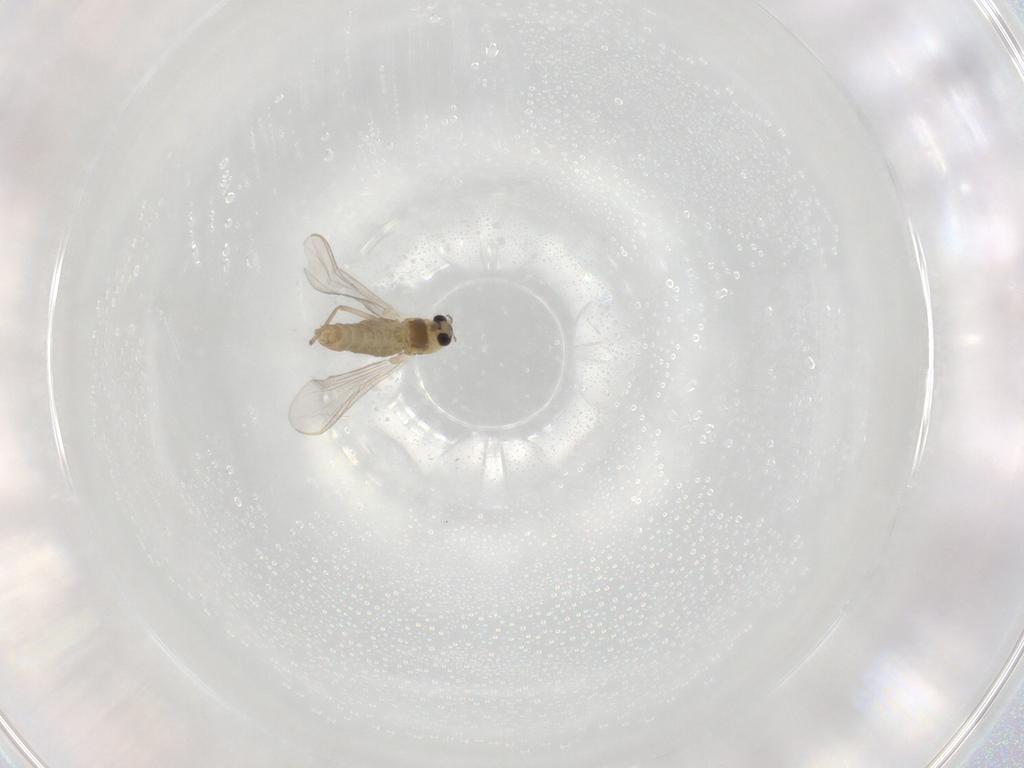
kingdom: Animalia
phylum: Arthropoda
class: Insecta
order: Diptera
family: Chironomidae
